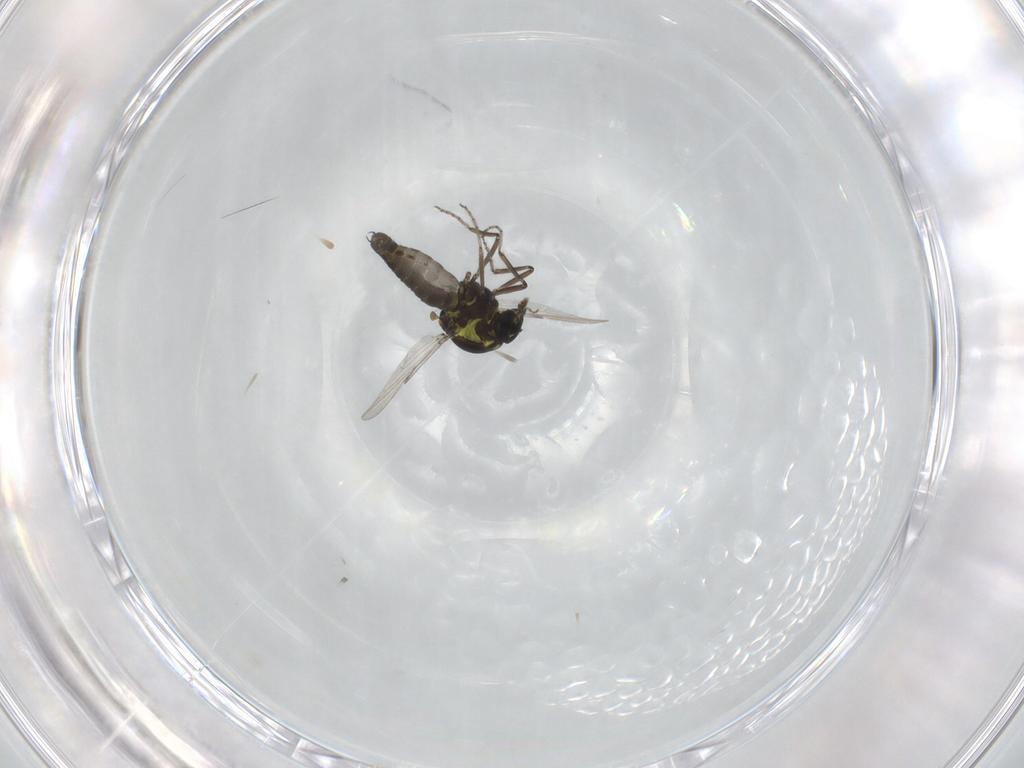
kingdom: Animalia
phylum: Arthropoda
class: Insecta
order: Diptera
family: Ceratopogonidae
